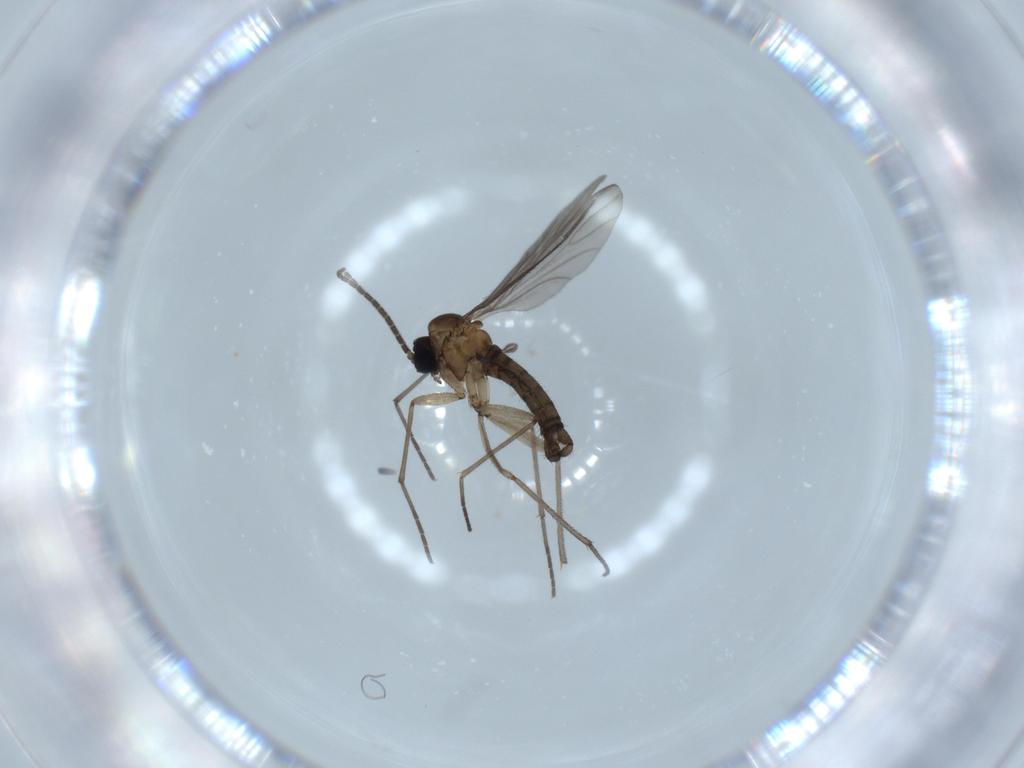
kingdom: Animalia
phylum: Arthropoda
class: Insecta
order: Diptera
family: Sciaridae
